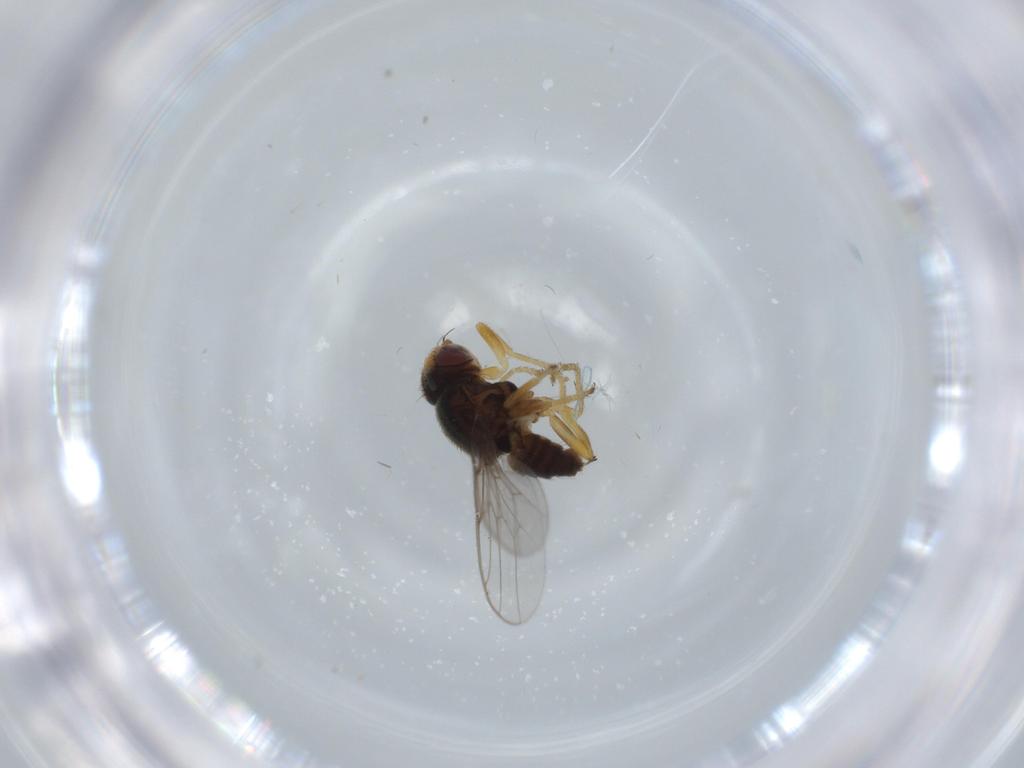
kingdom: Animalia
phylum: Arthropoda
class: Insecta
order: Diptera
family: Chloropidae
